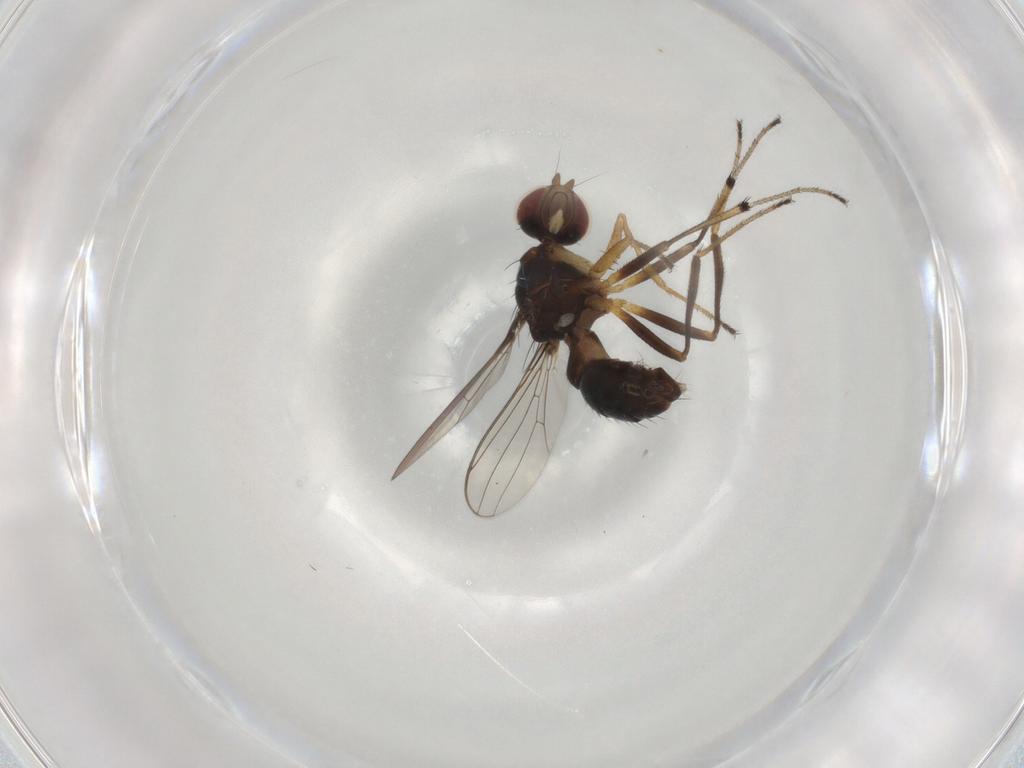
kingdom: Animalia
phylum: Arthropoda
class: Insecta
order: Diptera
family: Sepsidae
